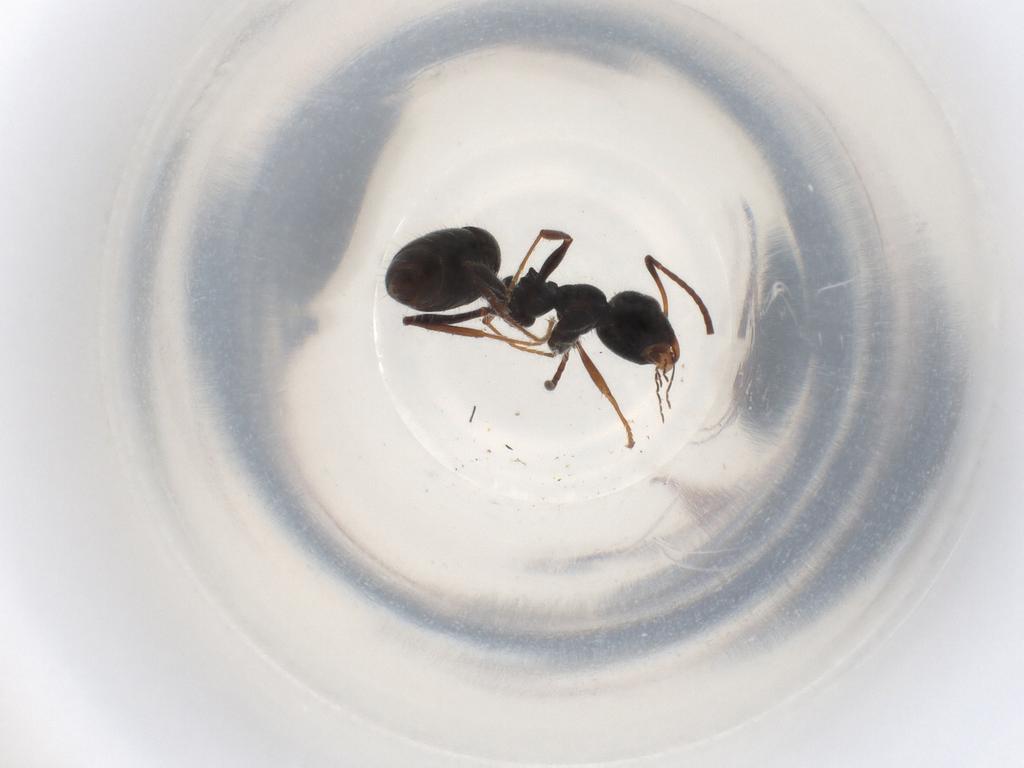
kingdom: Animalia
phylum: Arthropoda
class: Insecta
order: Hymenoptera
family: Formicidae
